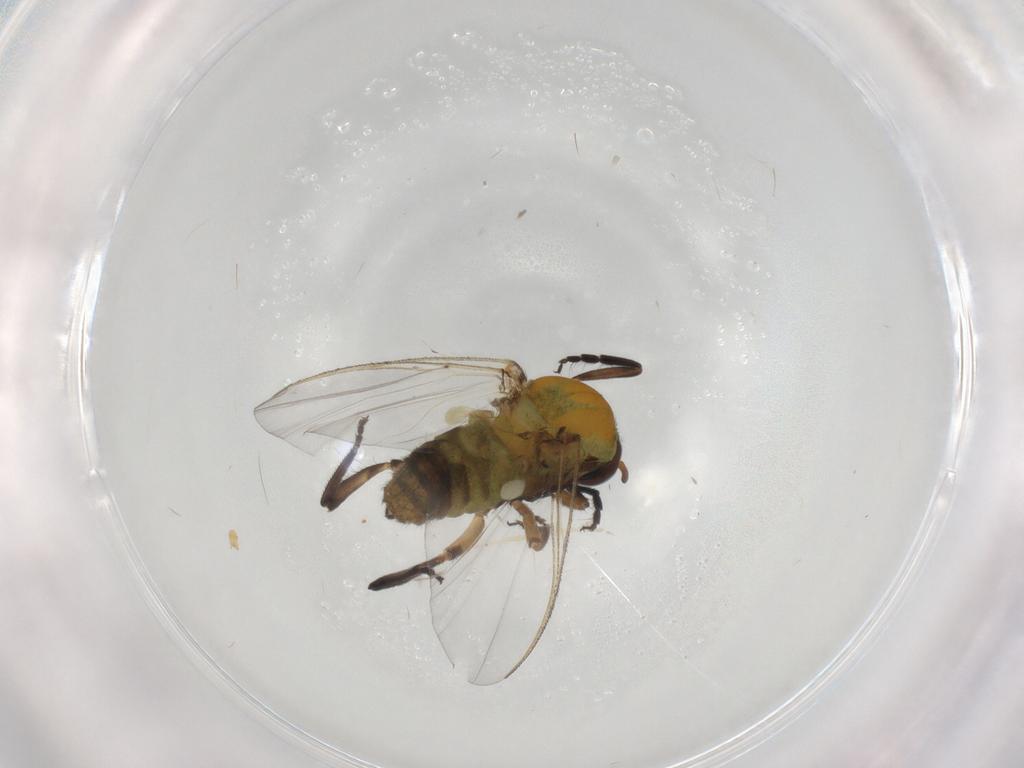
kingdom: Animalia
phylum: Arthropoda
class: Insecta
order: Diptera
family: Simuliidae
